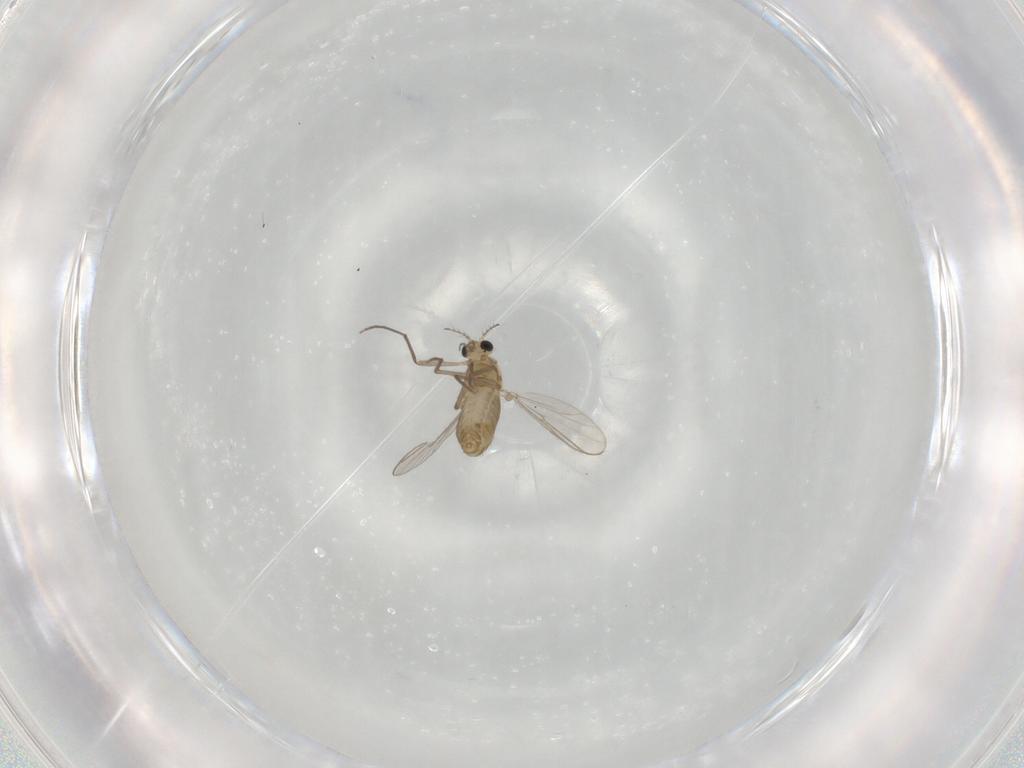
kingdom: Animalia
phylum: Arthropoda
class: Insecta
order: Diptera
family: Chironomidae
